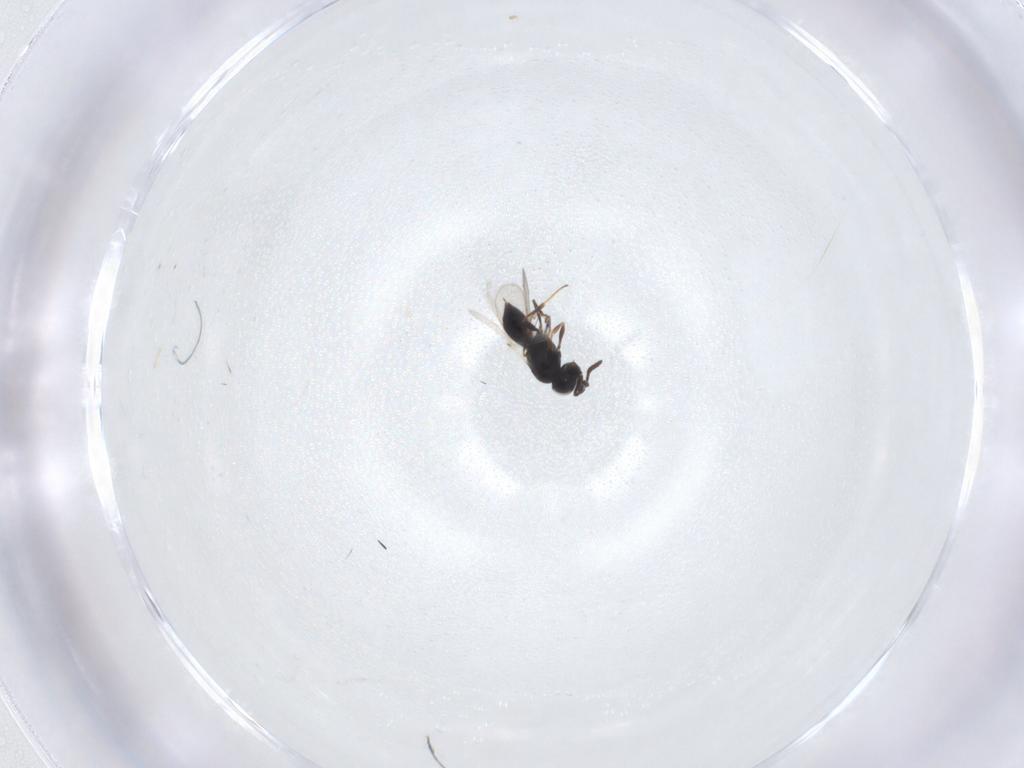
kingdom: Animalia
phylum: Arthropoda
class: Insecta
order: Hymenoptera
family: Scelionidae
